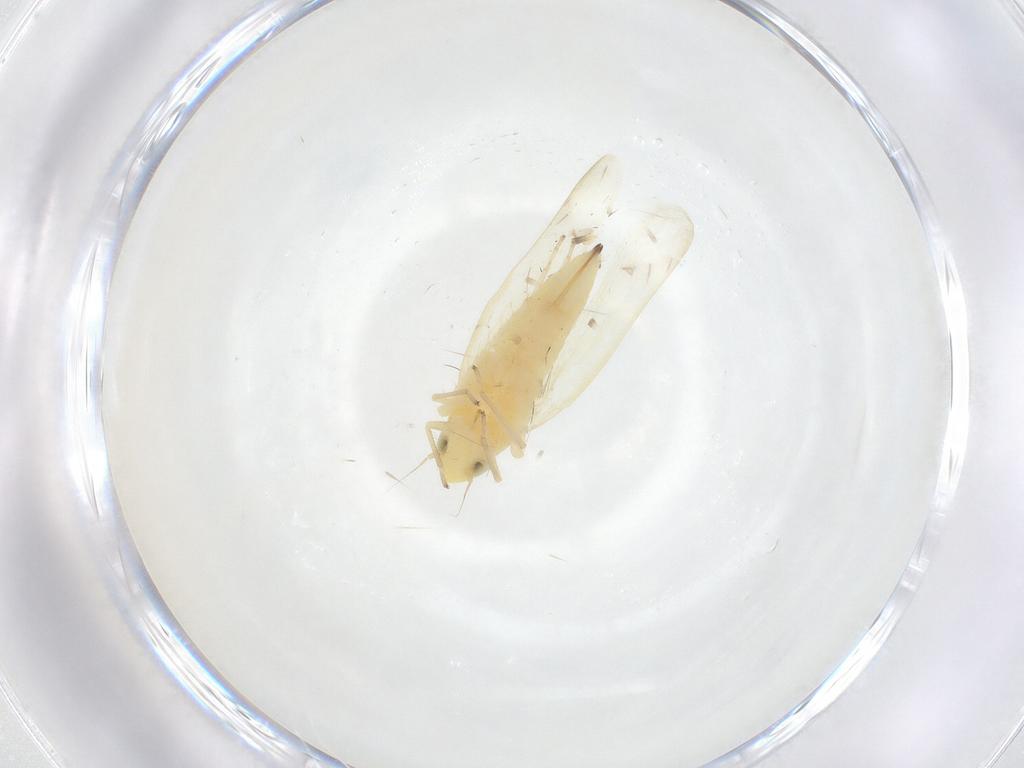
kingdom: Animalia
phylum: Arthropoda
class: Insecta
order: Hemiptera
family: Cicadellidae
